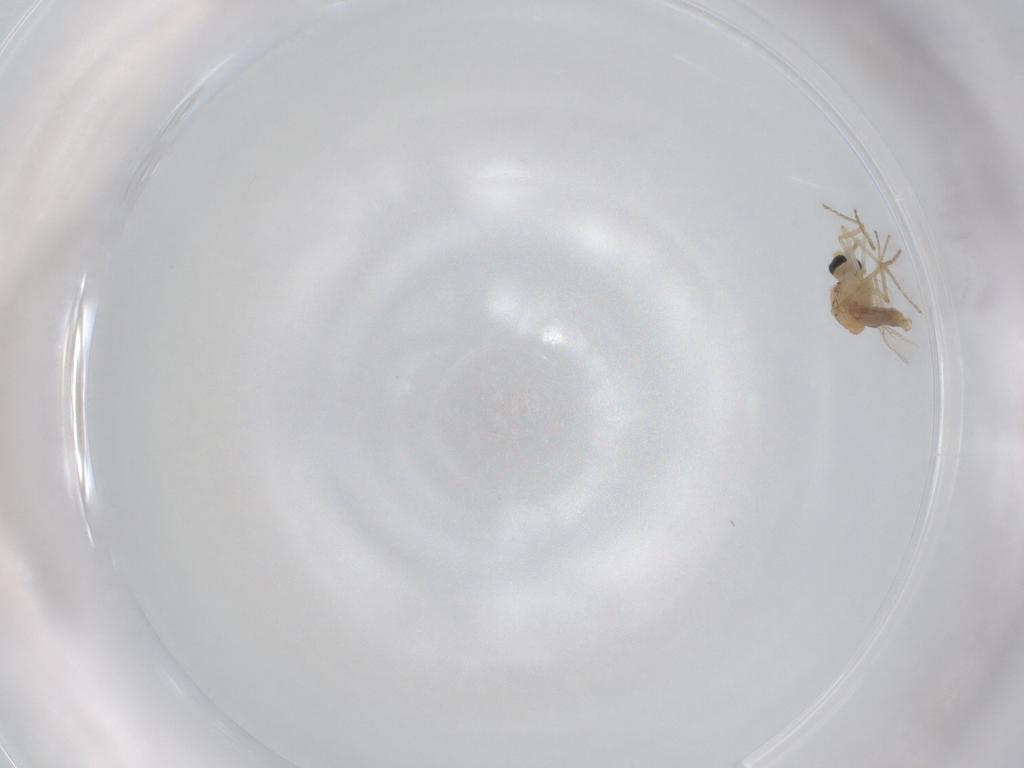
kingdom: Animalia
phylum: Arthropoda
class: Insecta
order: Diptera
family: Ceratopogonidae
